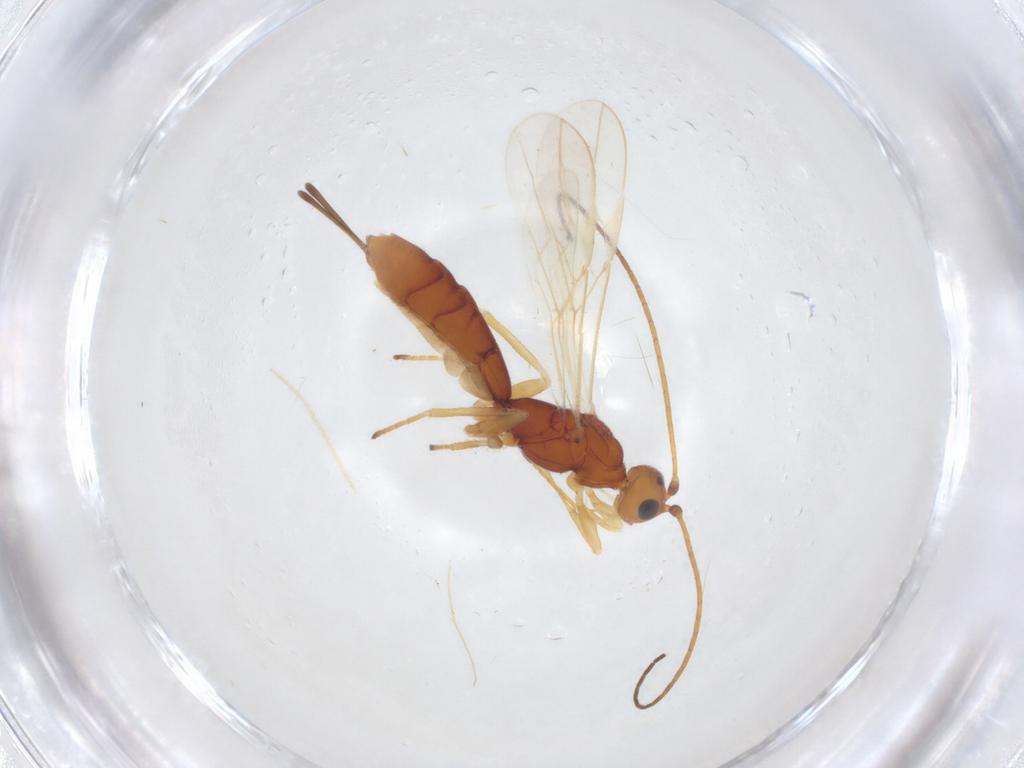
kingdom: Animalia
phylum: Arthropoda
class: Insecta
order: Hymenoptera
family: Braconidae
